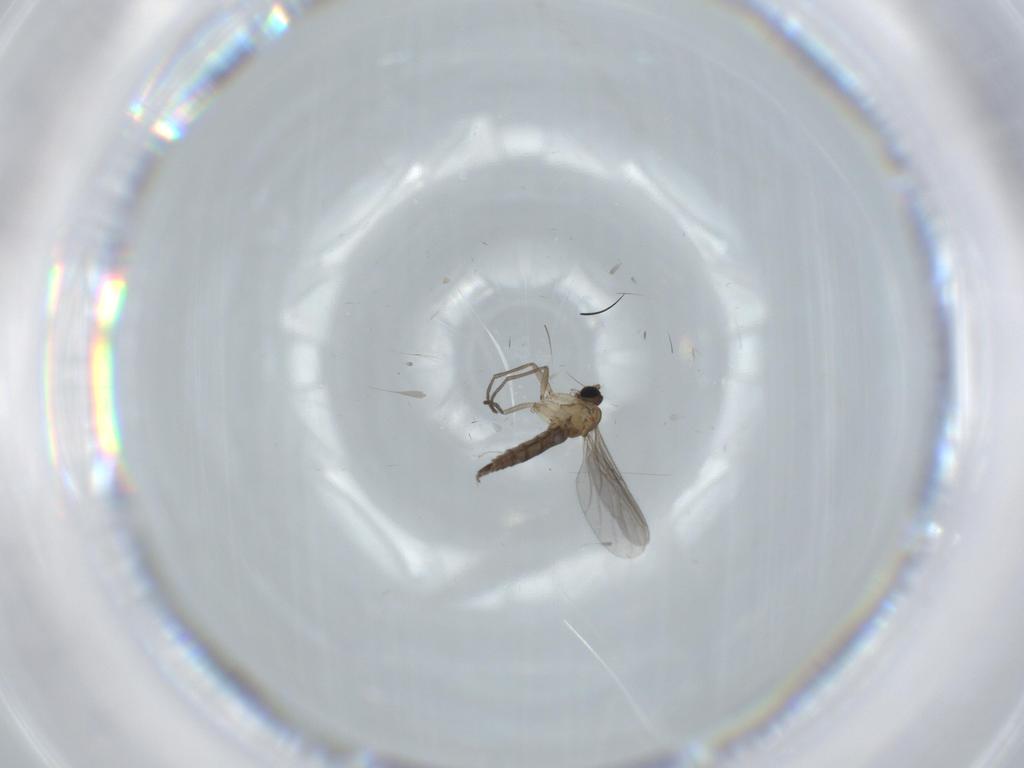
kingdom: Animalia
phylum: Arthropoda
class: Insecta
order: Diptera
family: Sciaridae
